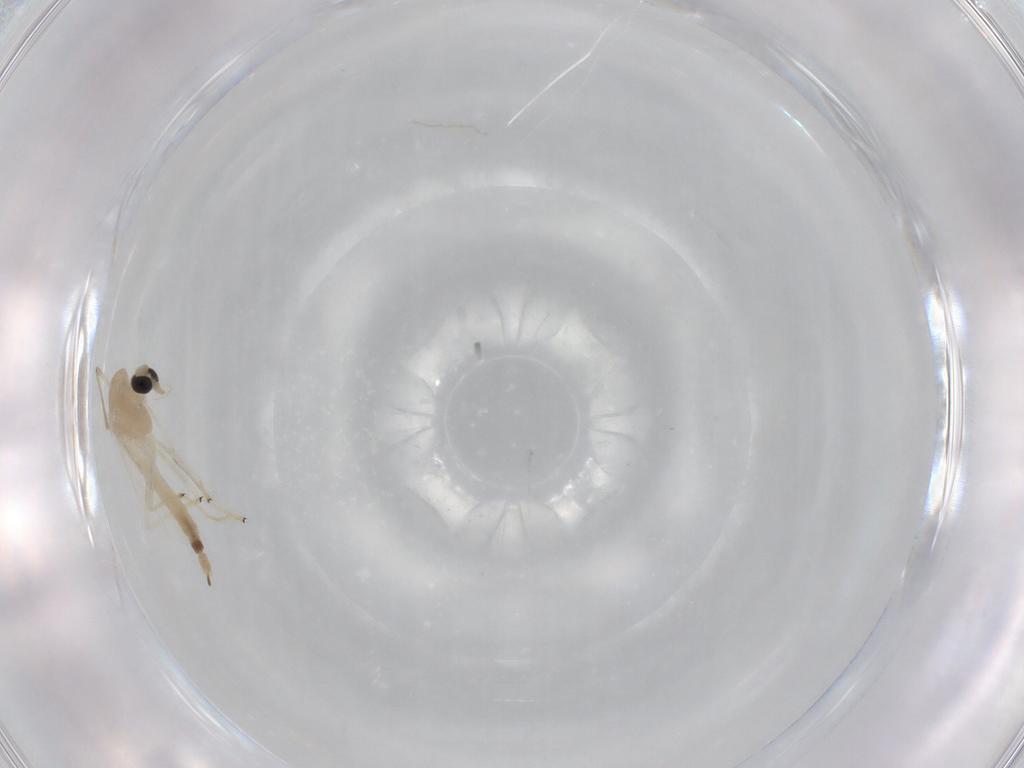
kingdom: Animalia
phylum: Arthropoda
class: Insecta
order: Diptera
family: Chironomidae
